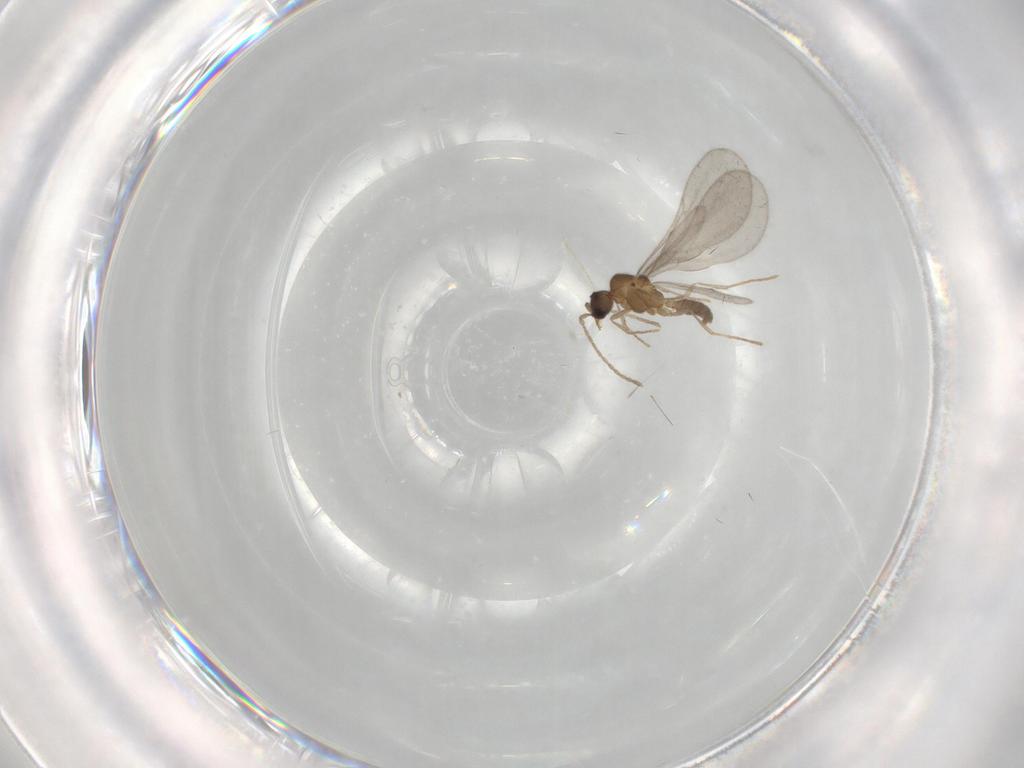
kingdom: Animalia
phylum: Arthropoda
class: Insecta
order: Hymenoptera
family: Formicidae
